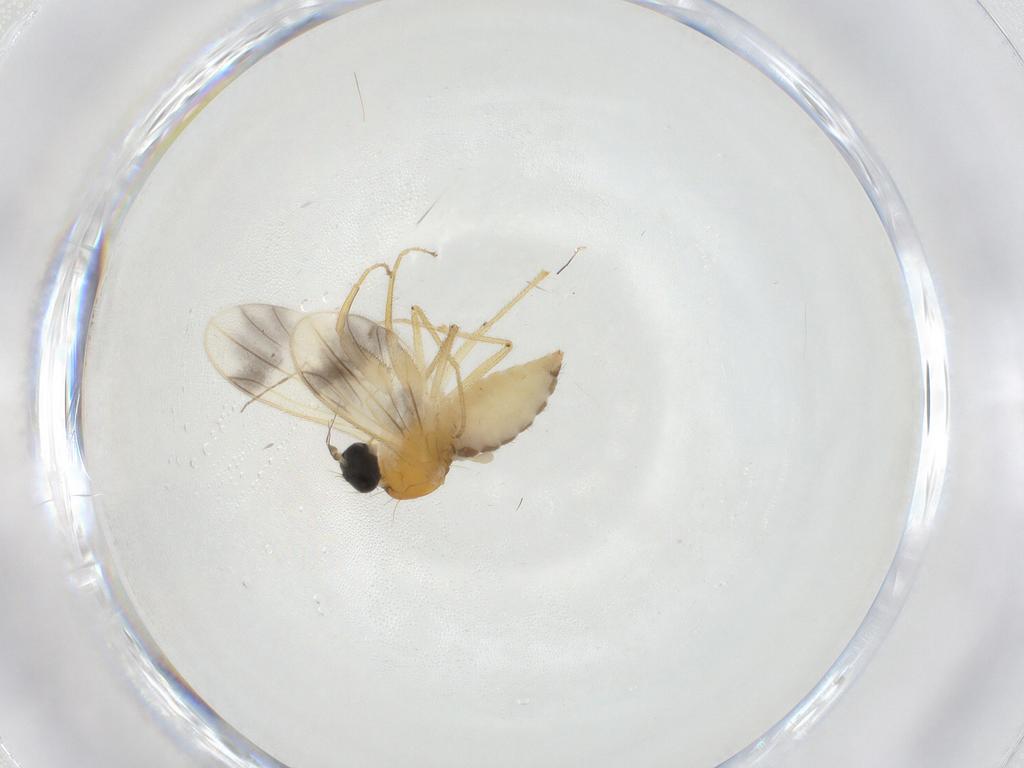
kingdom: Animalia
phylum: Arthropoda
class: Insecta
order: Diptera
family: Empididae
